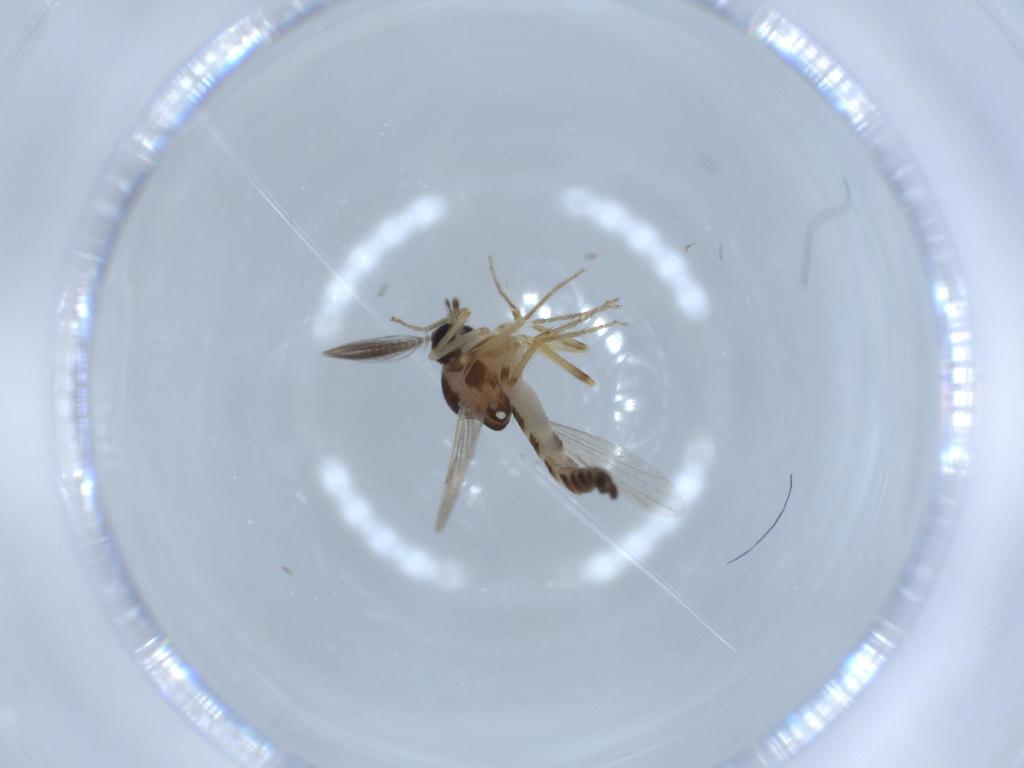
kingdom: Animalia
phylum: Arthropoda
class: Insecta
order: Diptera
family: Ceratopogonidae
